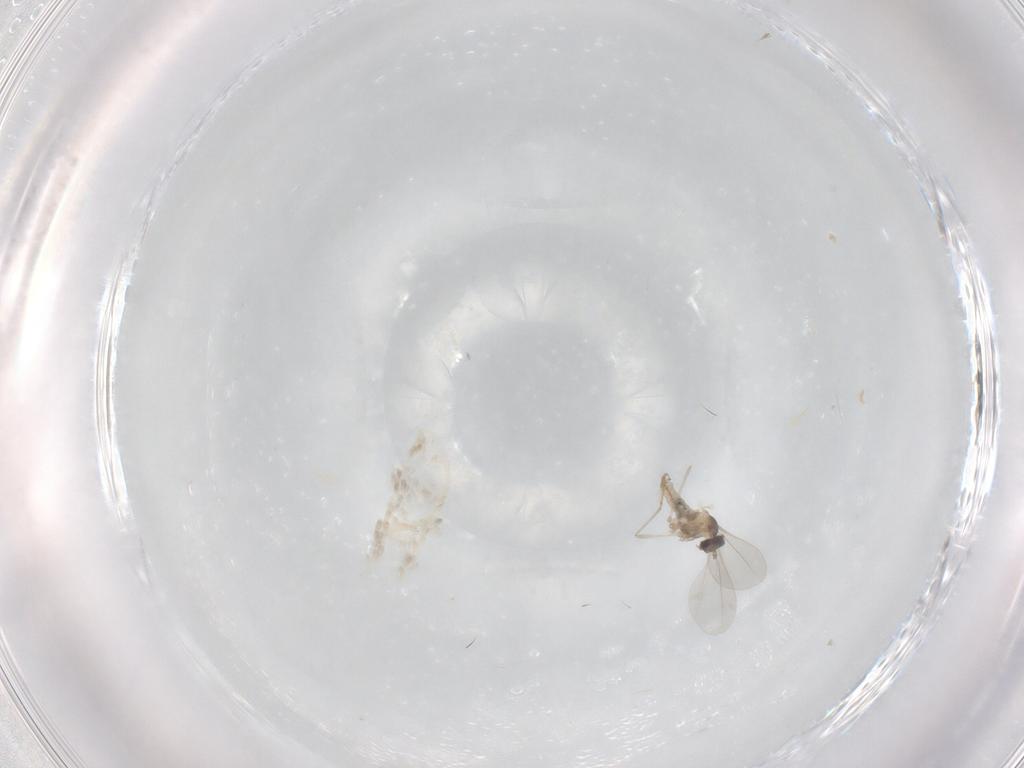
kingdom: Animalia
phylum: Arthropoda
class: Insecta
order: Diptera
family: Cecidomyiidae
